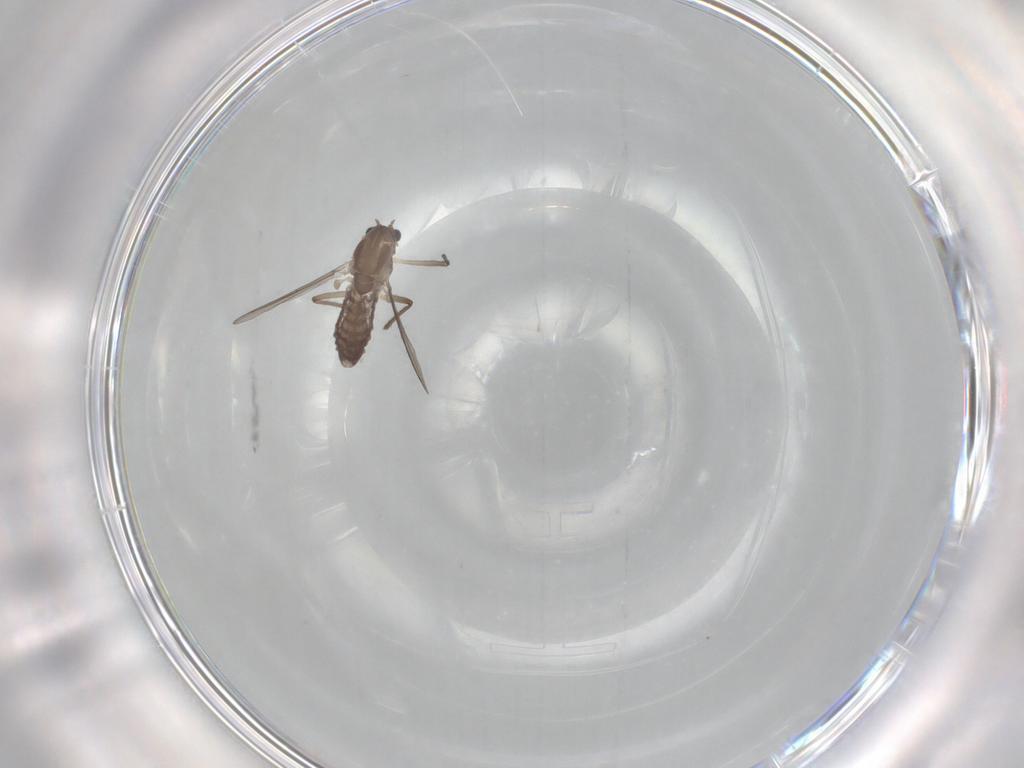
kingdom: Animalia
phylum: Arthropoda
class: Insecta
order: Diptera
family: Chironomidae
